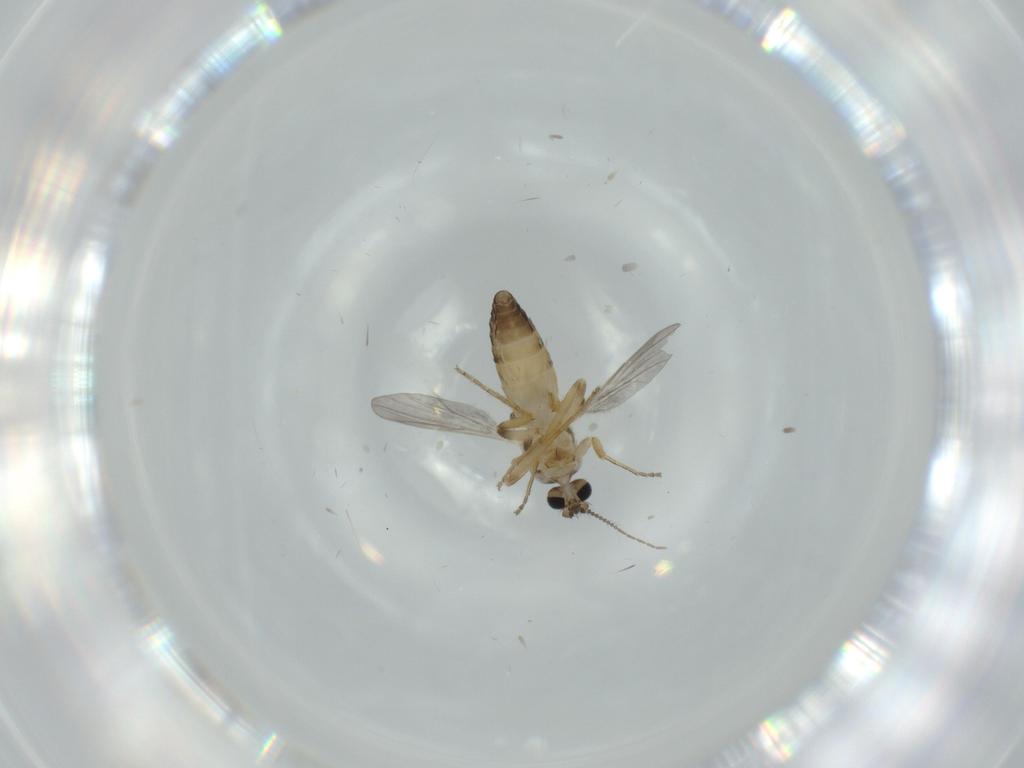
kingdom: Animalia
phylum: Arthropoda
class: Insecta
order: Diptera
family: Ceratopogonidae
